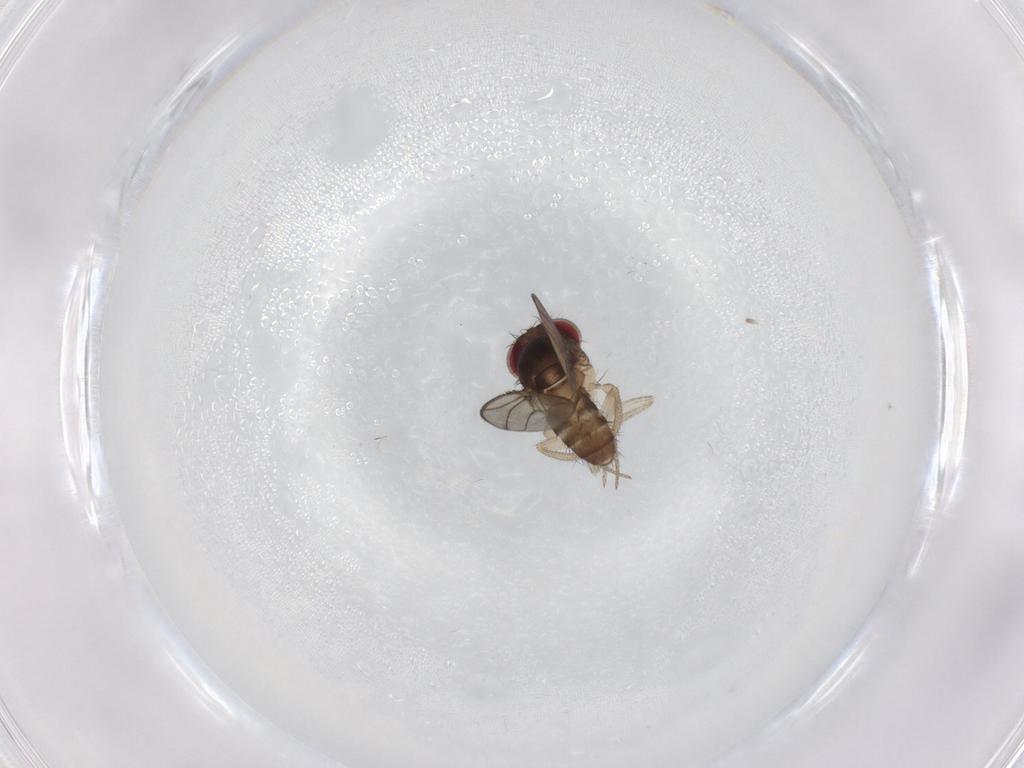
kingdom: Animalia
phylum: Arthropoda
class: Insecta
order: Diptera
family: Drosophilidae
